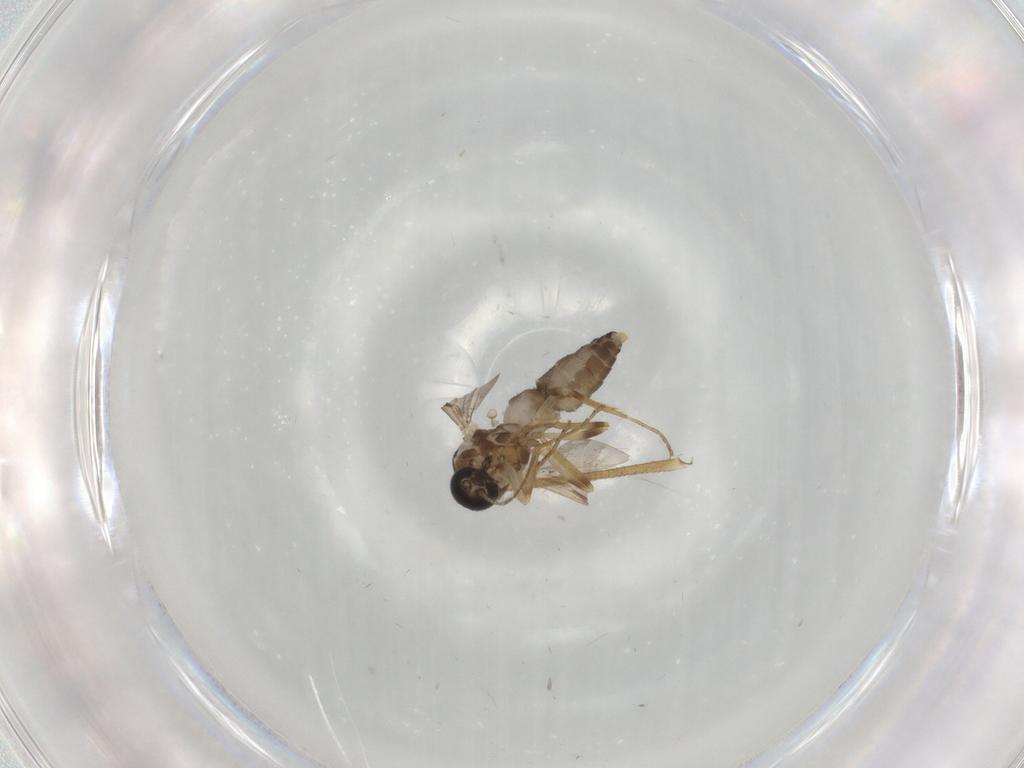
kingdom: Animalia
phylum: Arthropoda
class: Insecta
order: Diptera
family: Ceratopogonidae
